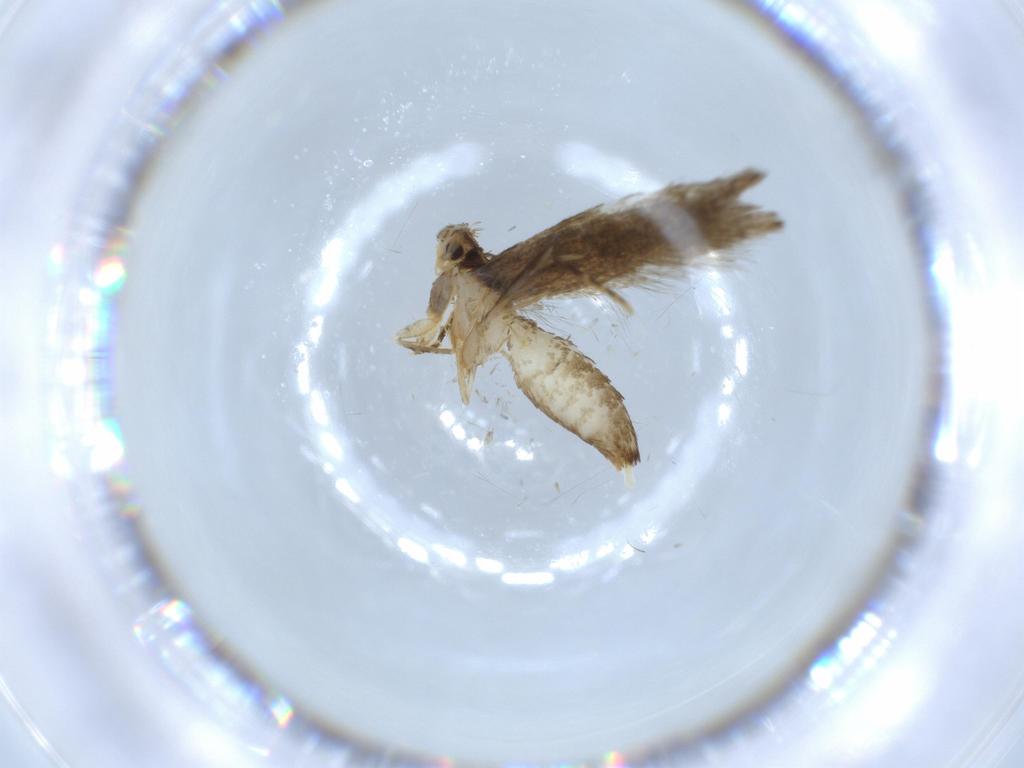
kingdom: Animalia
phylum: Arthropoda
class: Insecta
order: Lepidoptera
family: Tineidae
